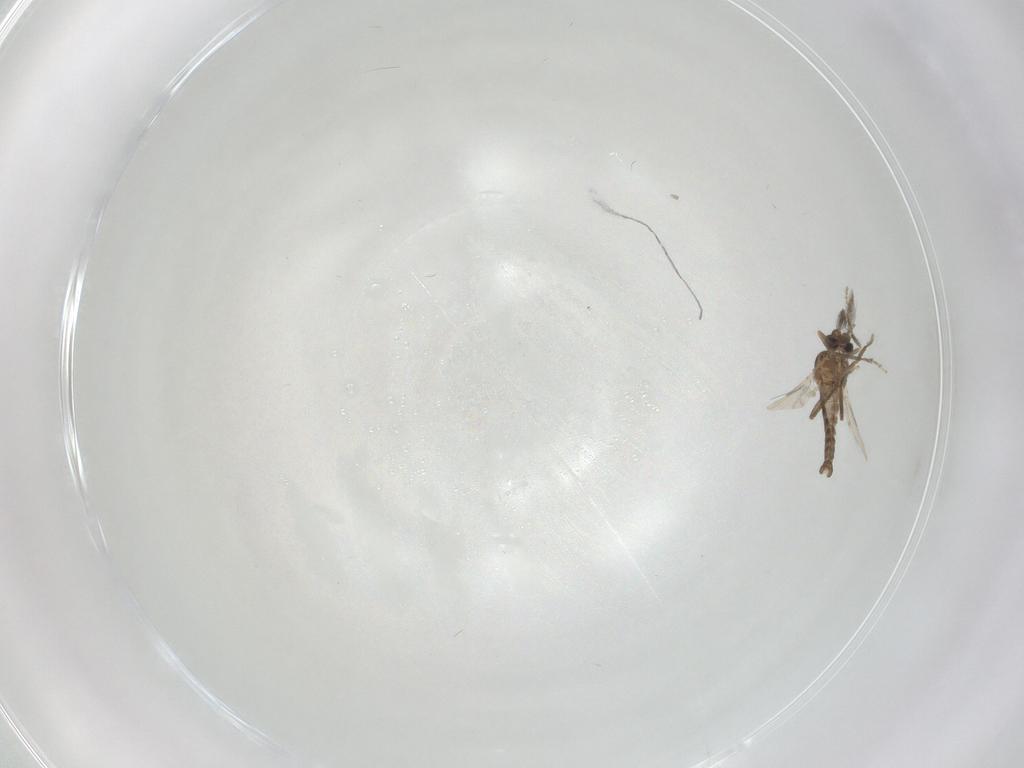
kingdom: Animalia
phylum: Arthropoda
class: Insecta
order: Diptera
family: Ceratopogonidae
